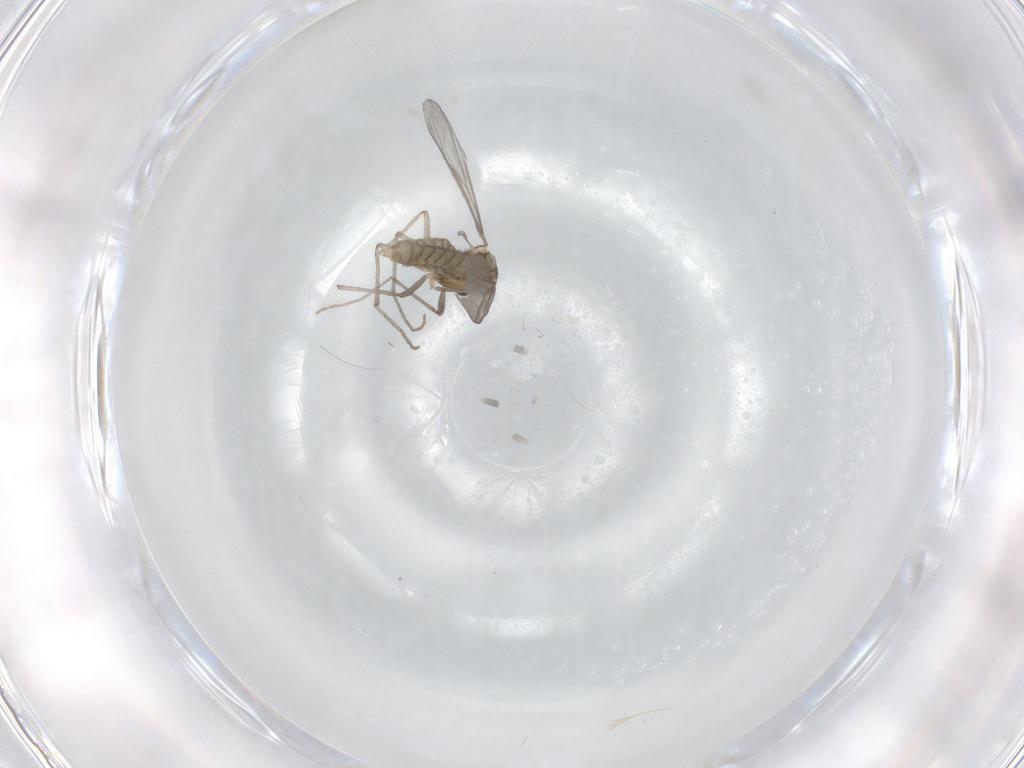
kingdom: Animalia
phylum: Arthropoda
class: Insecta
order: Diptera
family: Chironomidae
